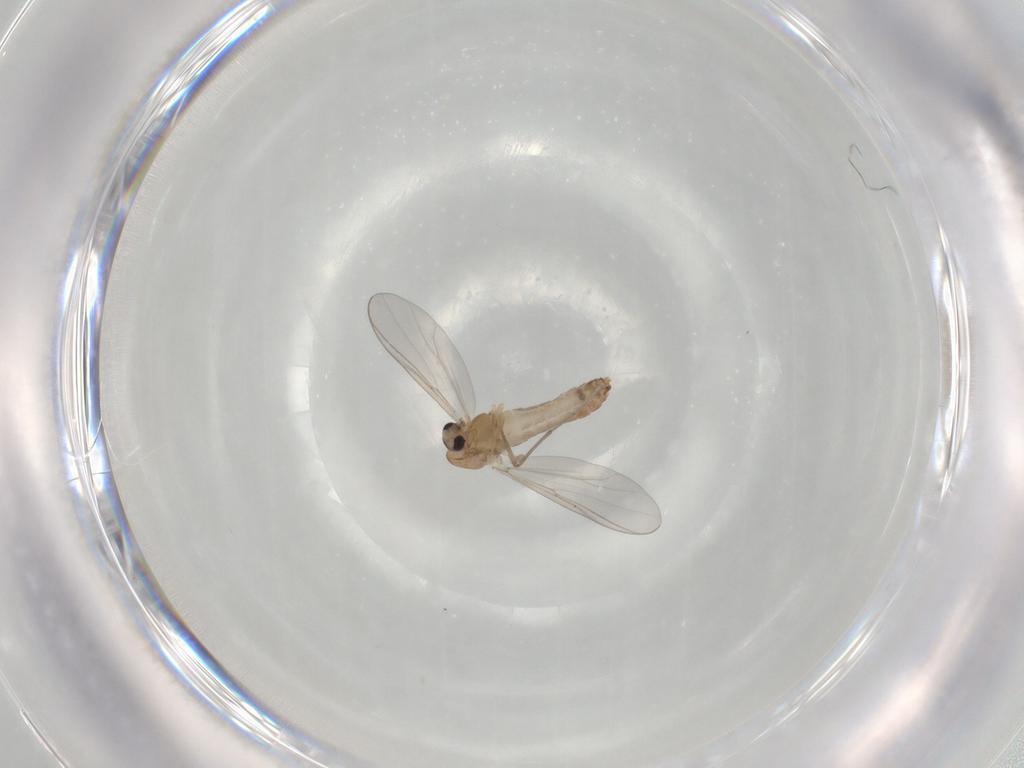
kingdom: Animalia
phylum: Arthropoda
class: Insecta
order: Diptera
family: Chironomidae
